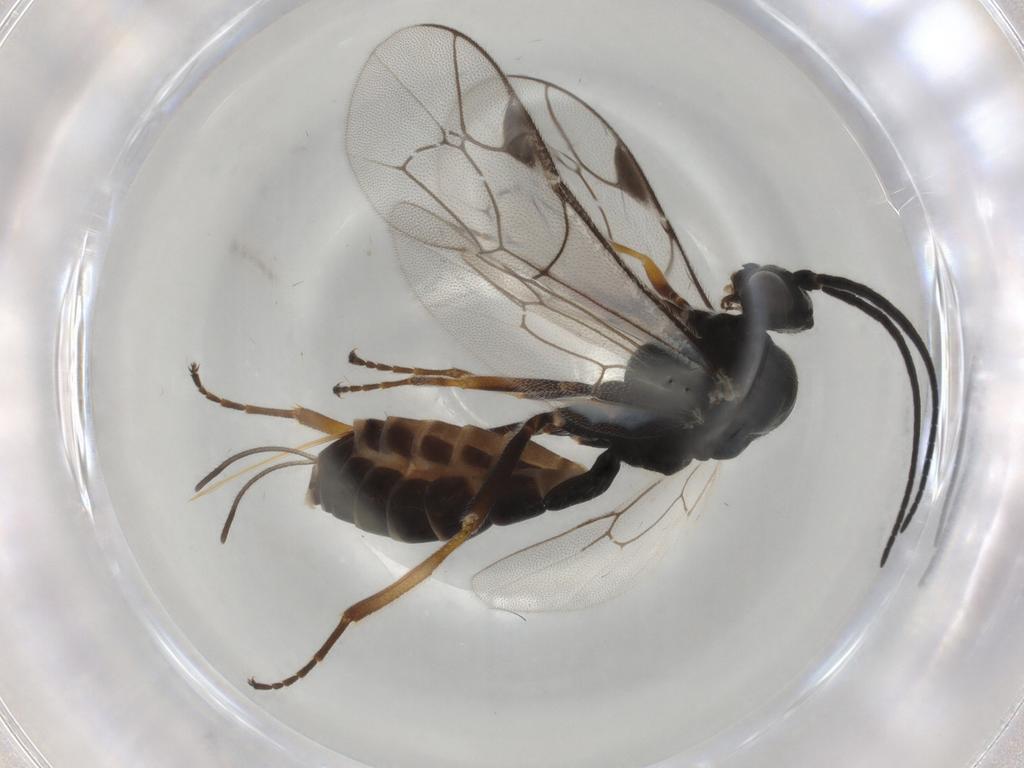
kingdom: Animalia
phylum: Arthropoda
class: Insecta
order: Hymenoptera
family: Ichneumonidae
